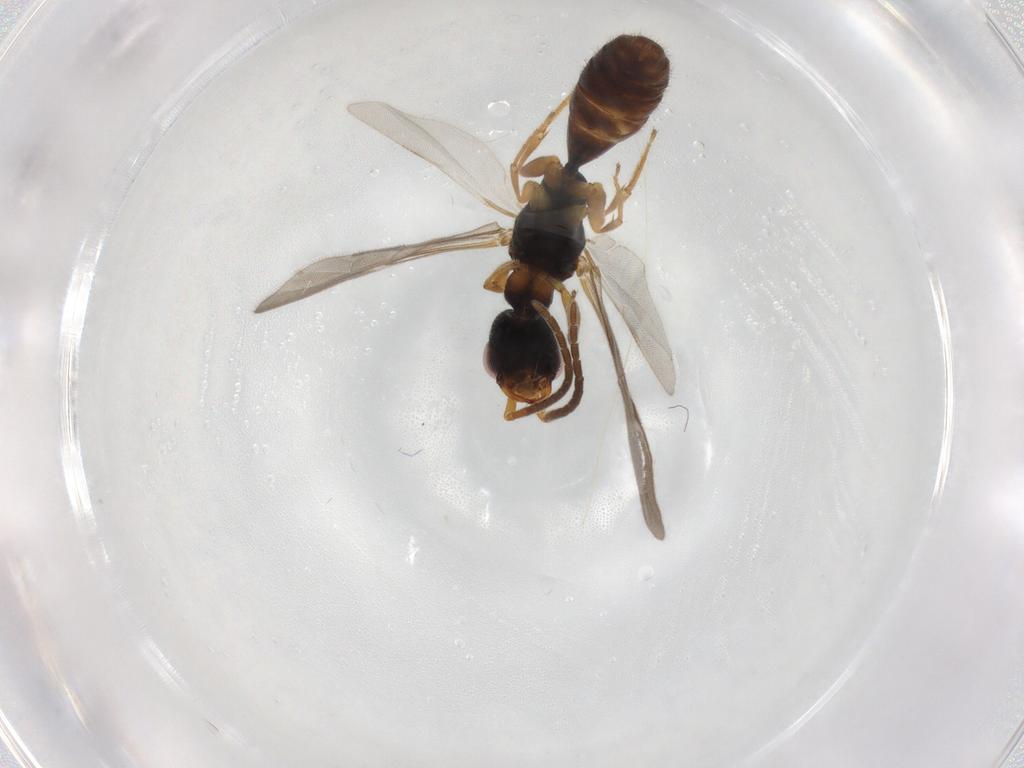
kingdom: Animalia
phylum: Arthropoda
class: Insecta
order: Hymenoptera
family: Bethylidae
